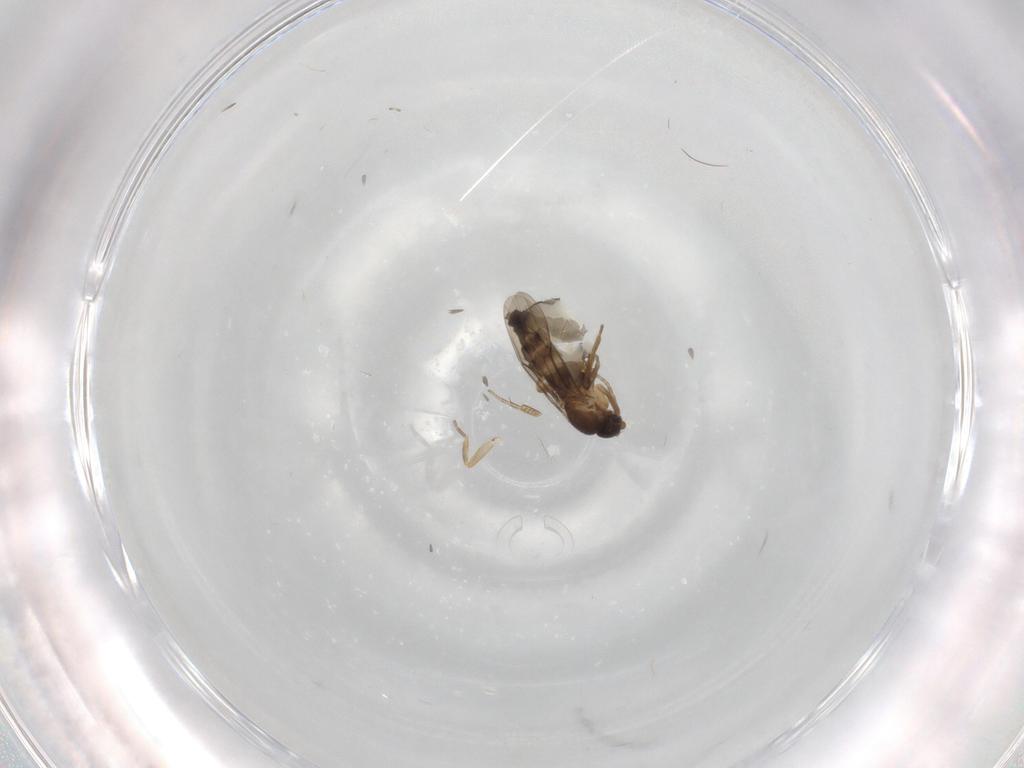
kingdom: Animalia
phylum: Arthropoda
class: Insecta
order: Diptera
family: Phoridae
